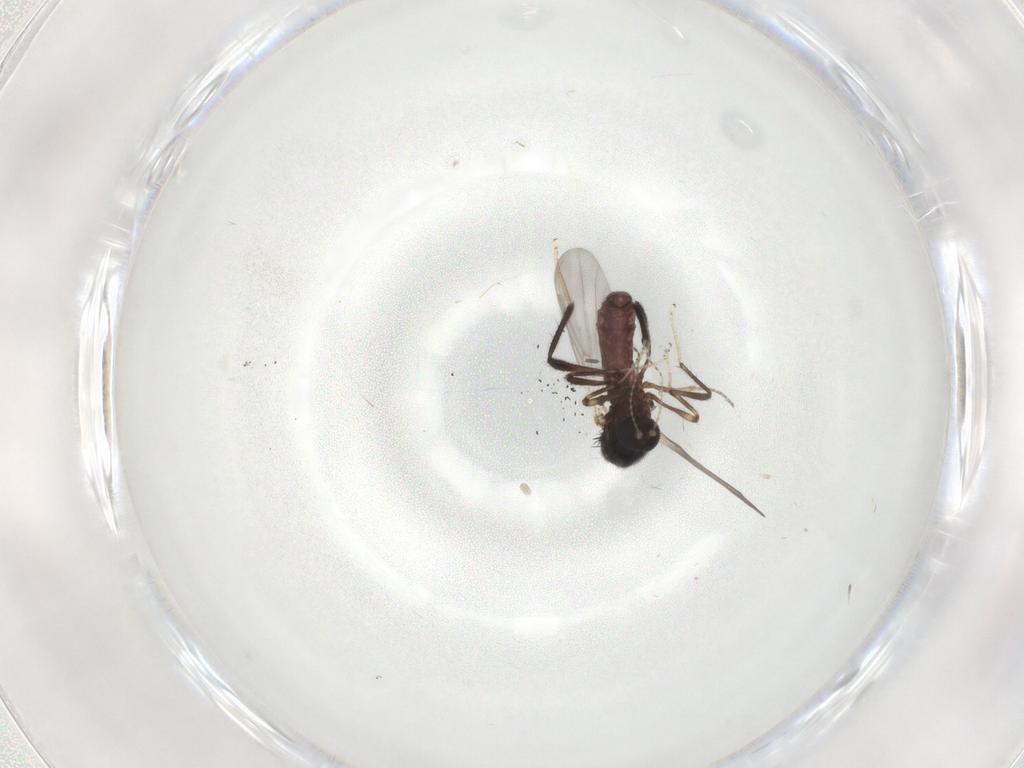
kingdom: Animalia
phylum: Arthropoda
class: Insecta
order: Diptera
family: Ceratopogonidae
